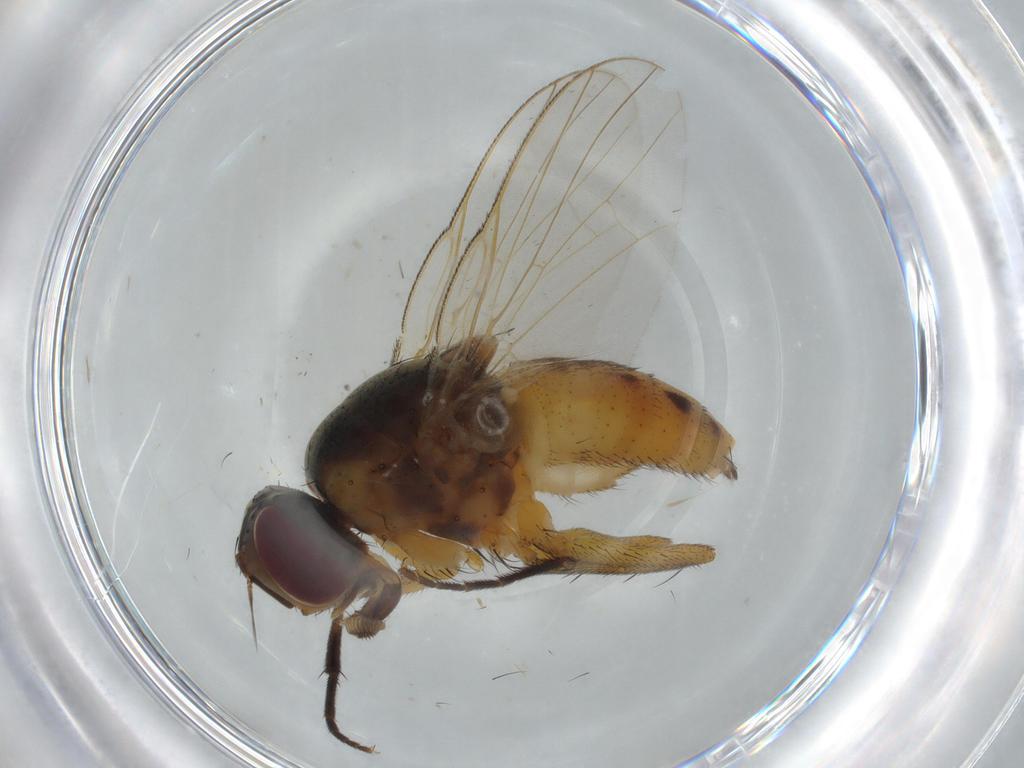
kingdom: Animalia
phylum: Arthropoda
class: Insecta
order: Diptera
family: Muscidae
